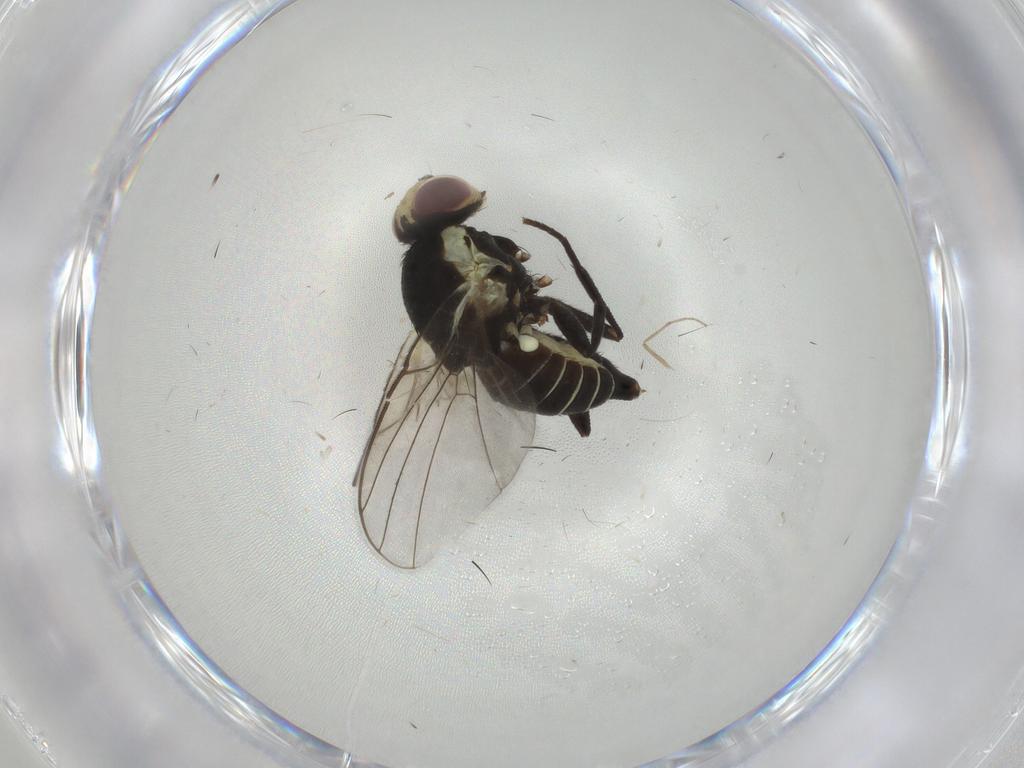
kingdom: Animalia
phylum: Arthropoda
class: Insecta
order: Diptera
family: Agromyzidae
